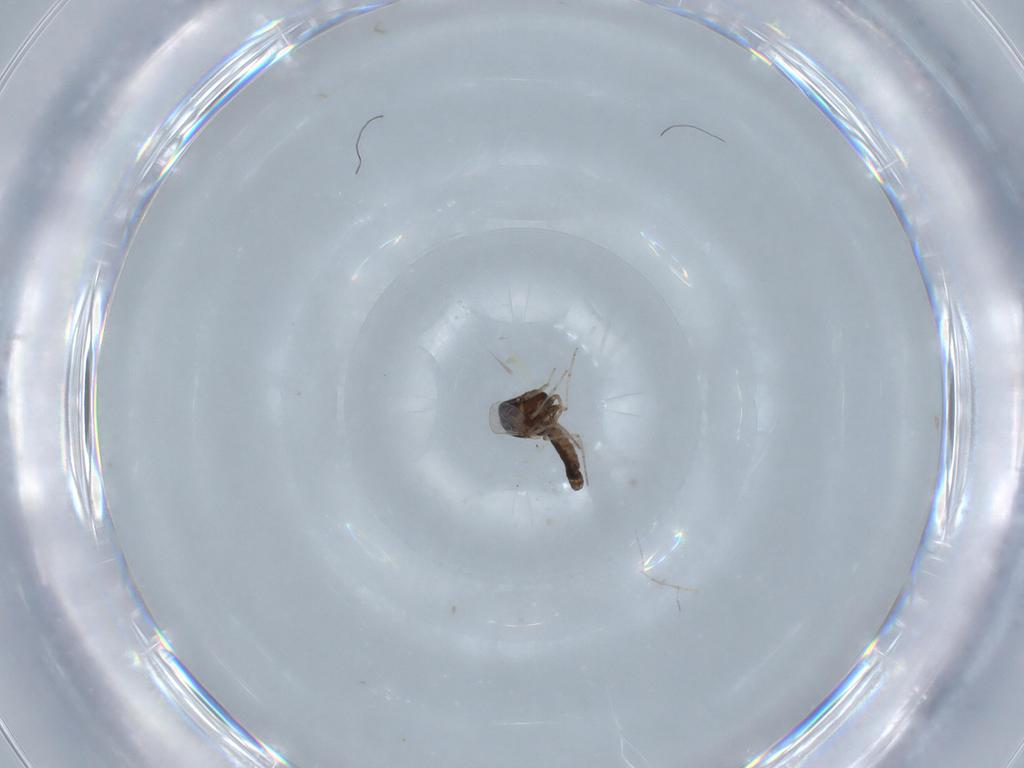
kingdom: Animalia
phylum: Arthropoda
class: Insecta
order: Diptera
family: Ceratopogonidae
